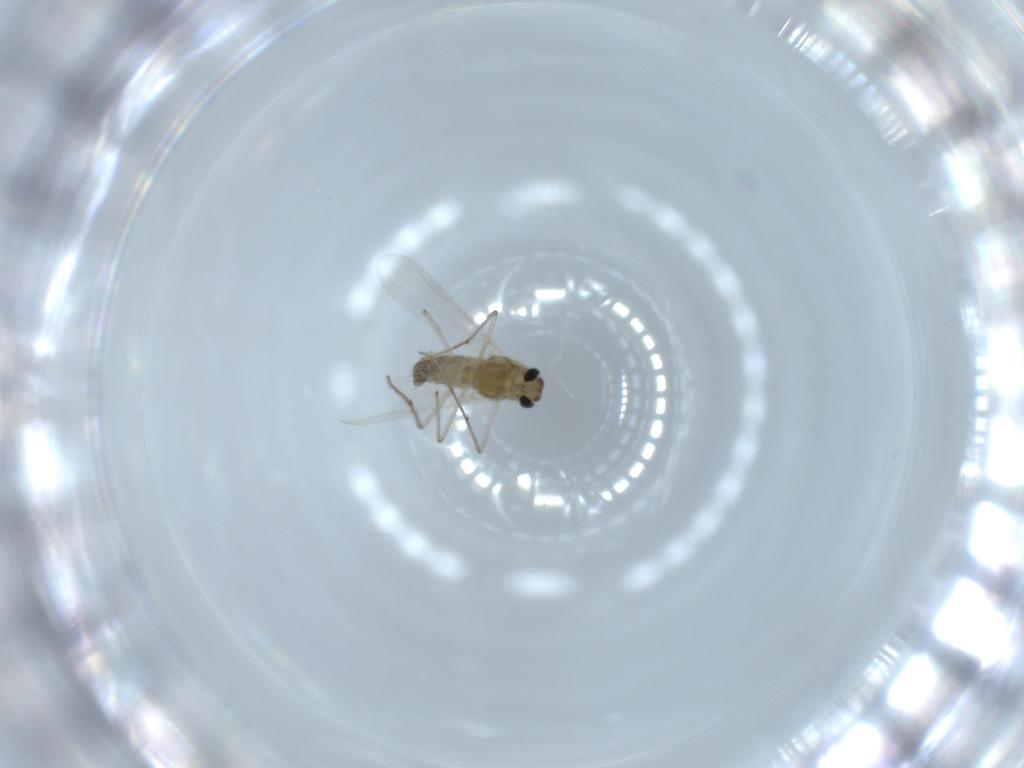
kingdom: Animalia
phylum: Arthropoda
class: Insecta
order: Diptera
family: Chironomidae
